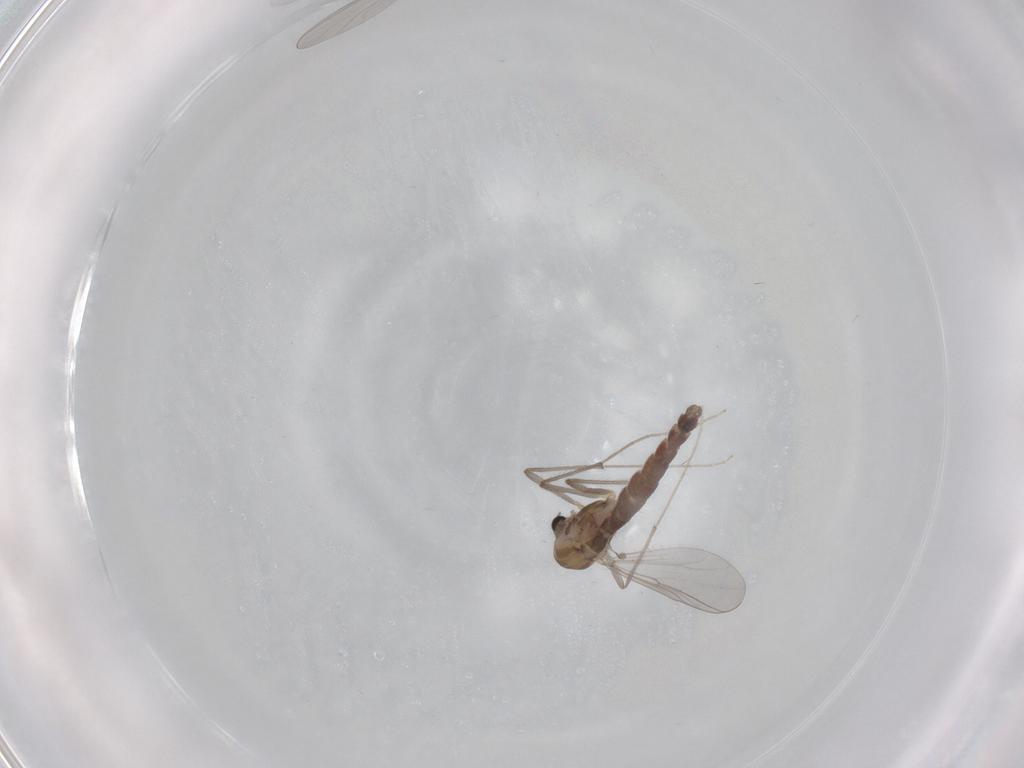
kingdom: Animalia
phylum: Arthropoda
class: Insecta
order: Diptera
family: Chironomidae
